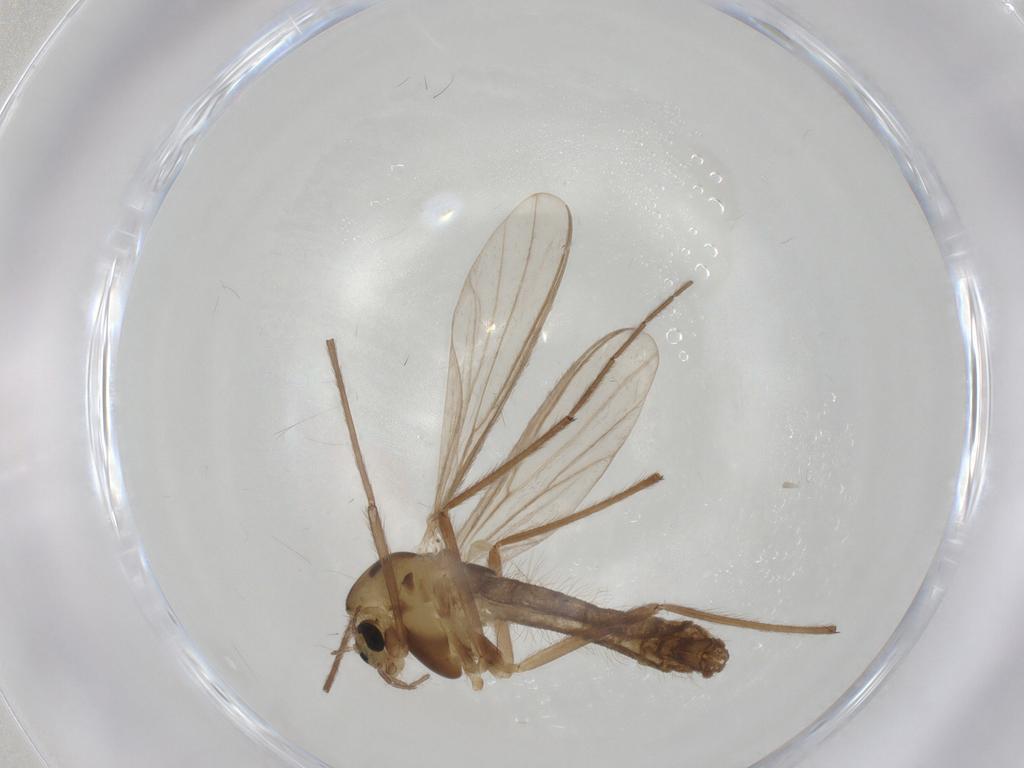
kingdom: Animalia
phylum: Arthropoda
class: Insecta
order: Diptera
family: Chironomidae
